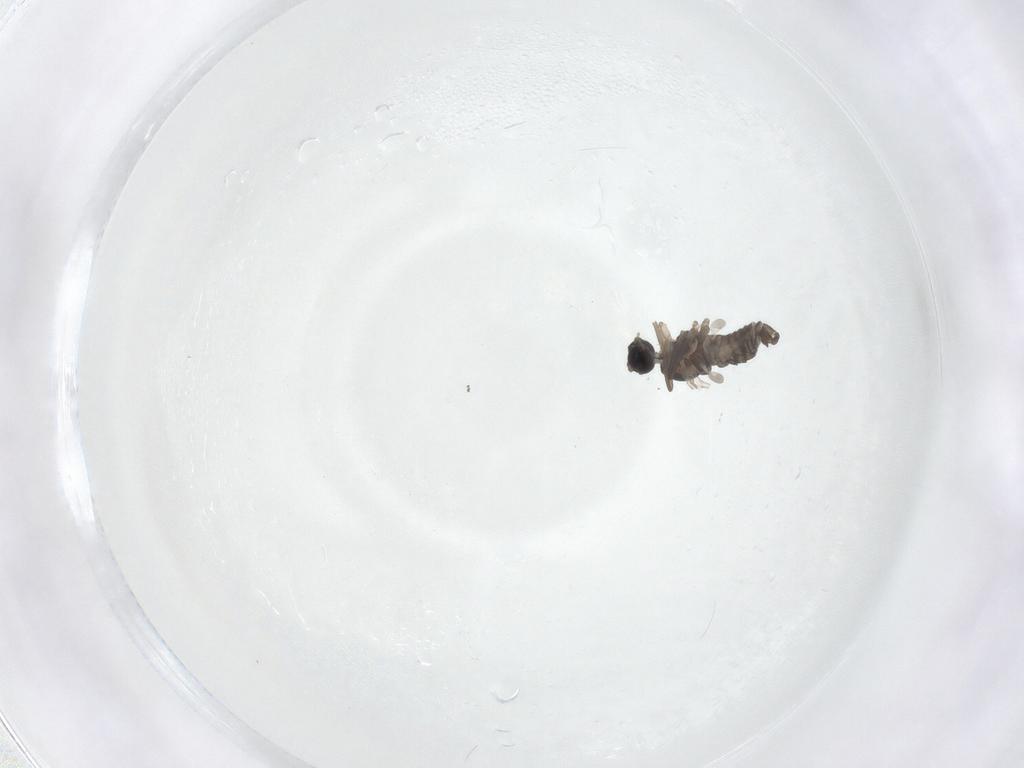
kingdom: Animalia
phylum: Arthropoda
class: Insecta
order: Diptera
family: Cecidomyiidae
